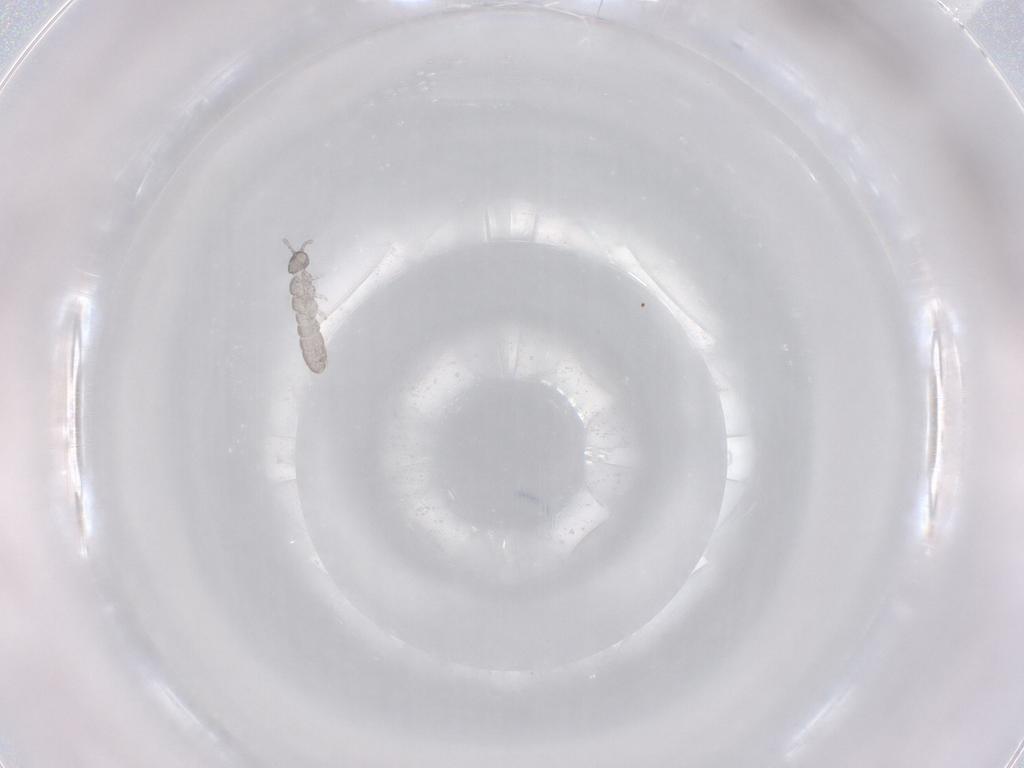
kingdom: Animalia
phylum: Arthropoda
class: Collembola
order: Entomobryomorpha
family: Isotomidae
